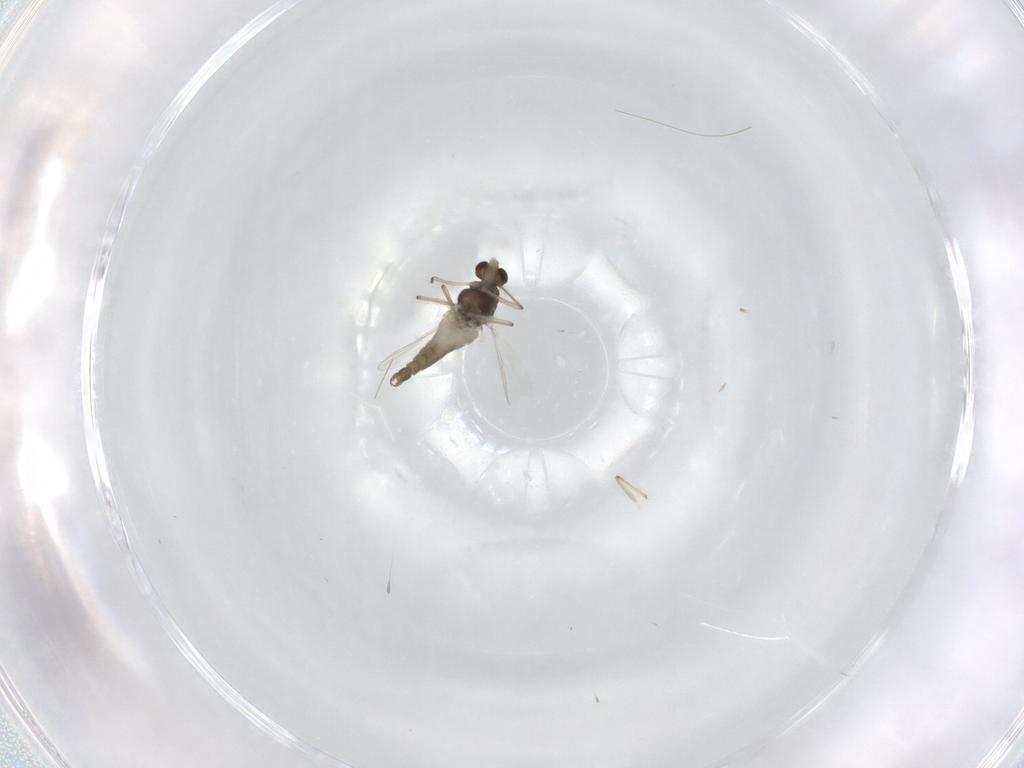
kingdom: Animalia
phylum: Arthropoda
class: Insecta
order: Diptera
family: Chironomidae
